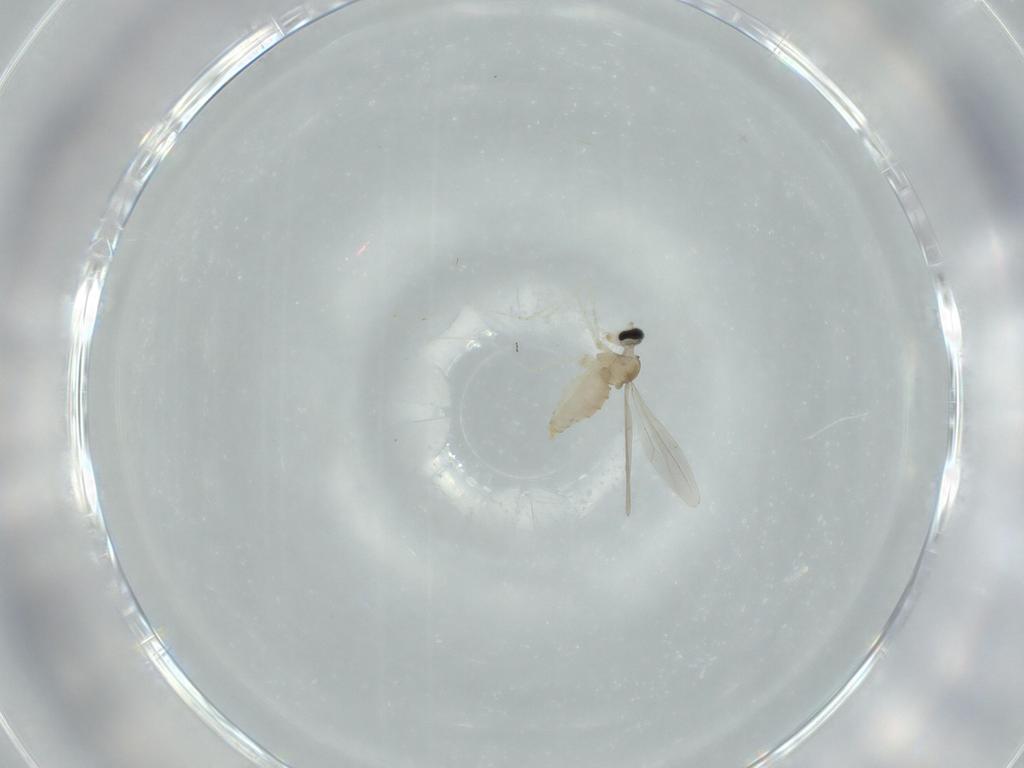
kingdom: Animalia
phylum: Arthropoda
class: Insecta
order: Diptera
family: Cecidomyiidae
